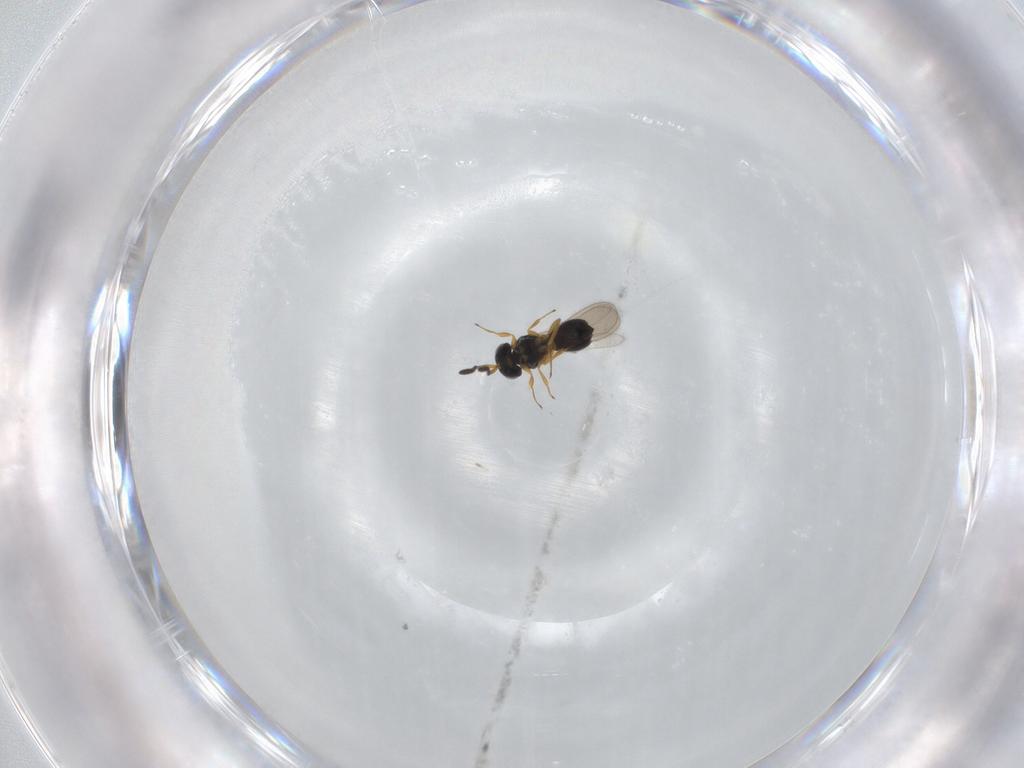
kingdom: Animalia
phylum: Arthropoda
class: Insecta
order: Hymenoptera
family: Scelionidae
